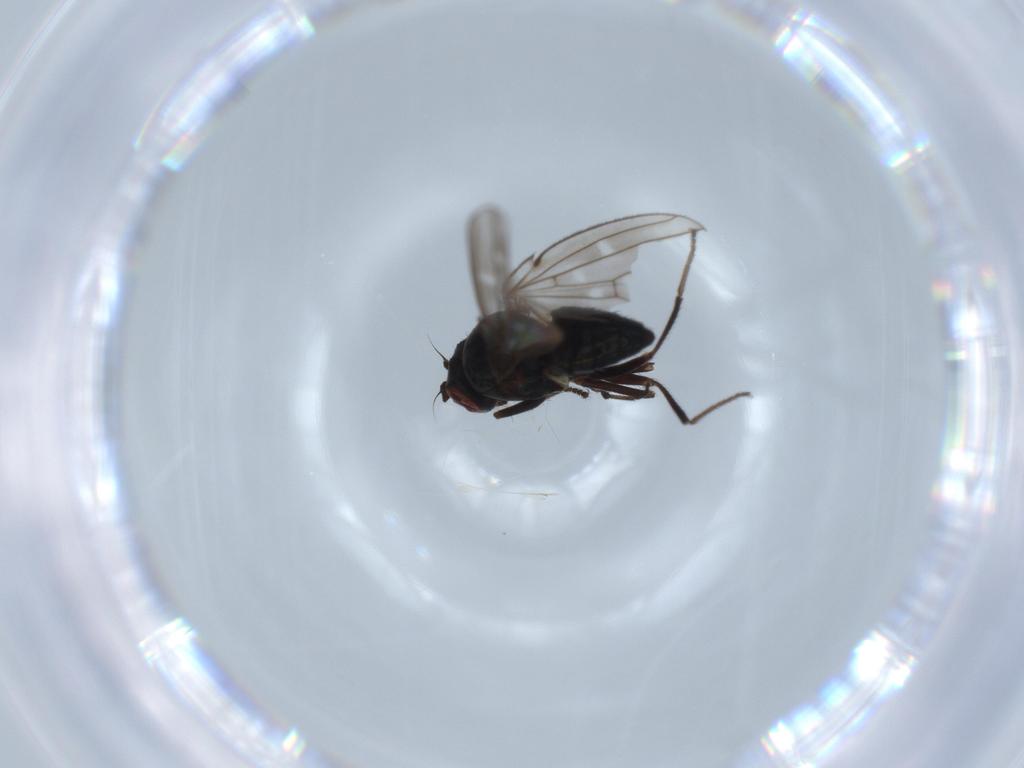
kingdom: Animalia
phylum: Arthropoda
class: Insecta
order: Diptera
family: Ephydridae
